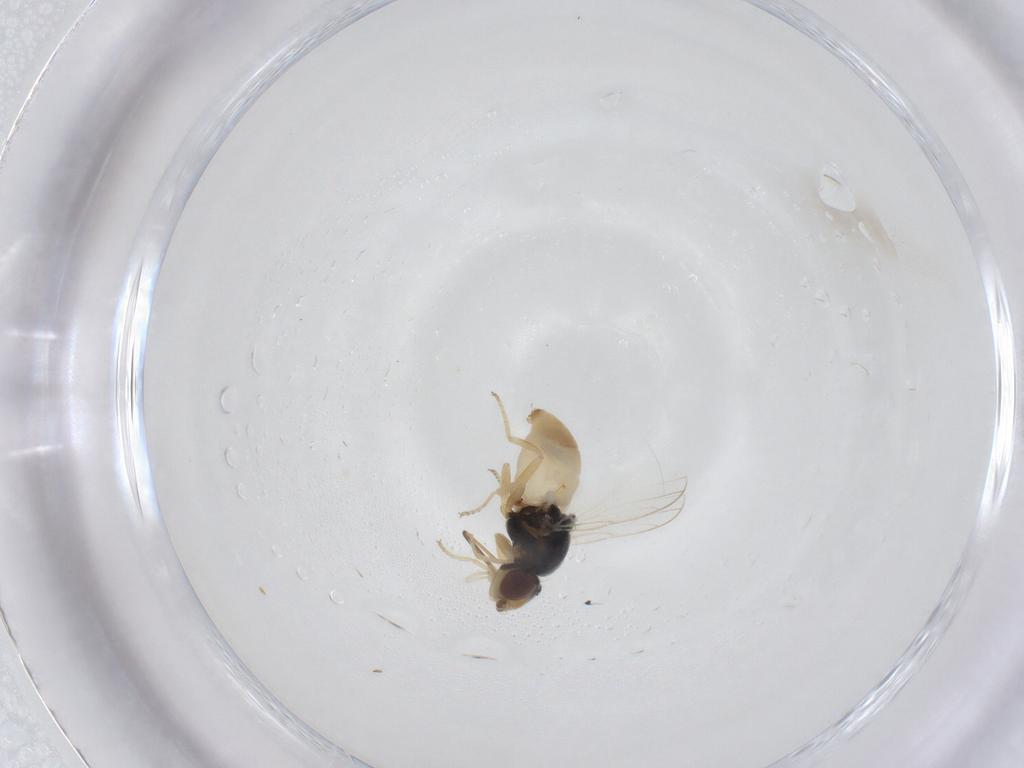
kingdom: Animalia
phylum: Arthropoda
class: Insecta
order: Diptera
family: Chloropidae
